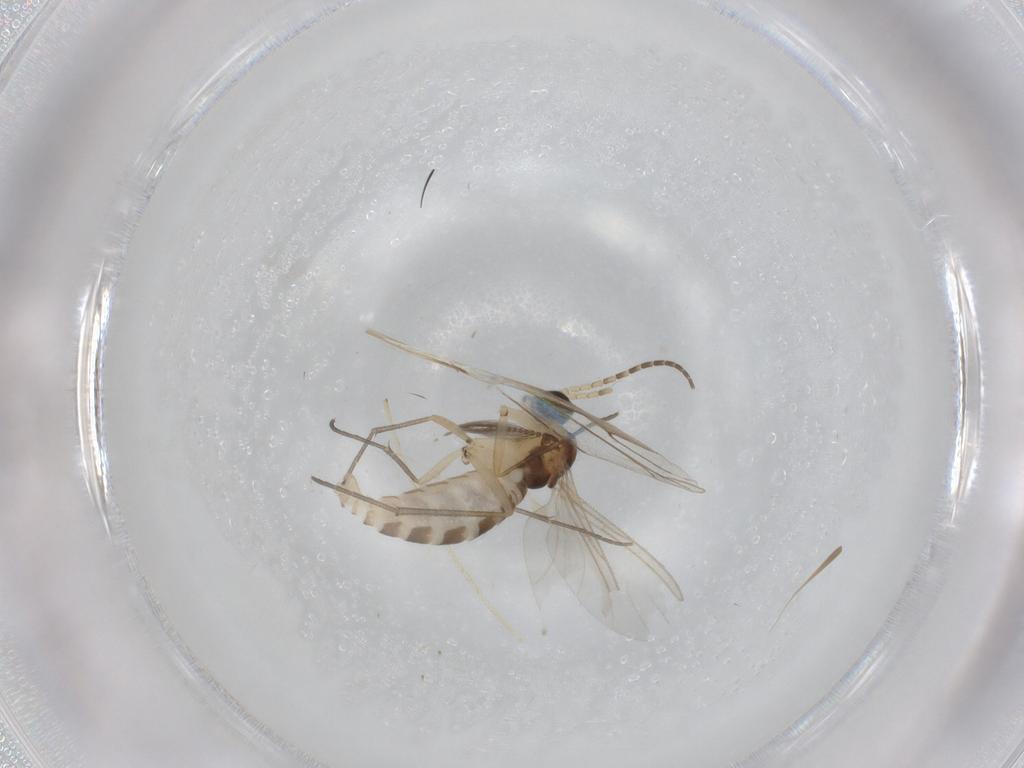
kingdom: Animalia
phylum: Arthropoda
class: Insecta
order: Diptera
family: Sciaridae
